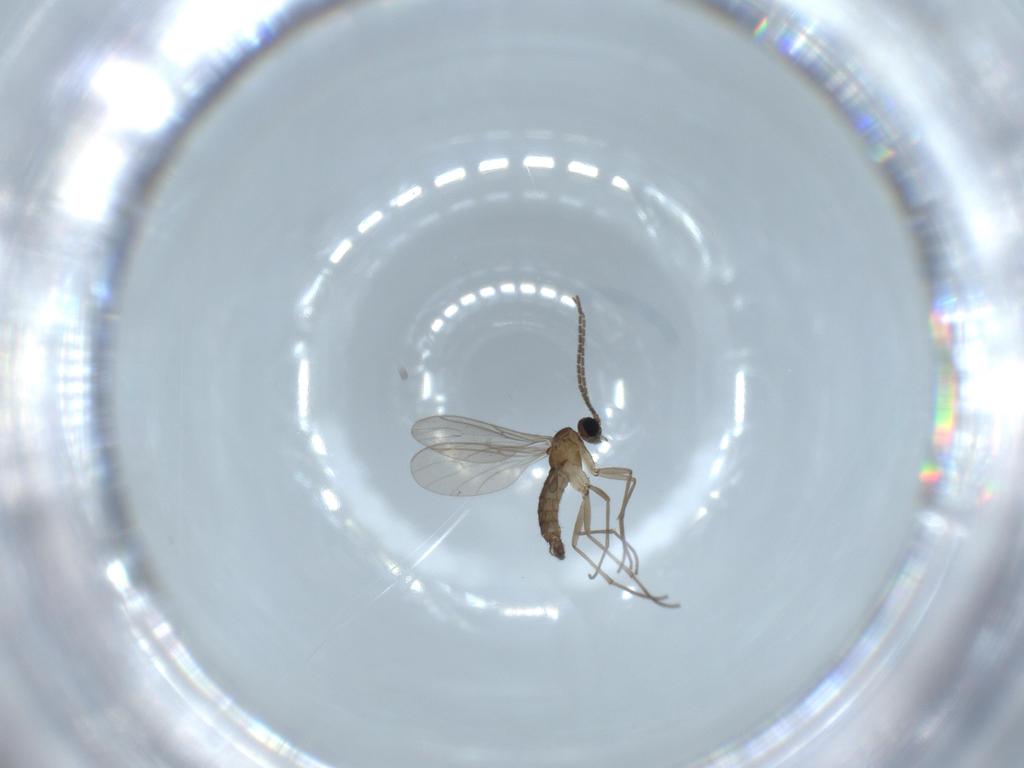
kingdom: Animalia
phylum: Arthropoda
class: Insecta
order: Diptera
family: Sciaridae
